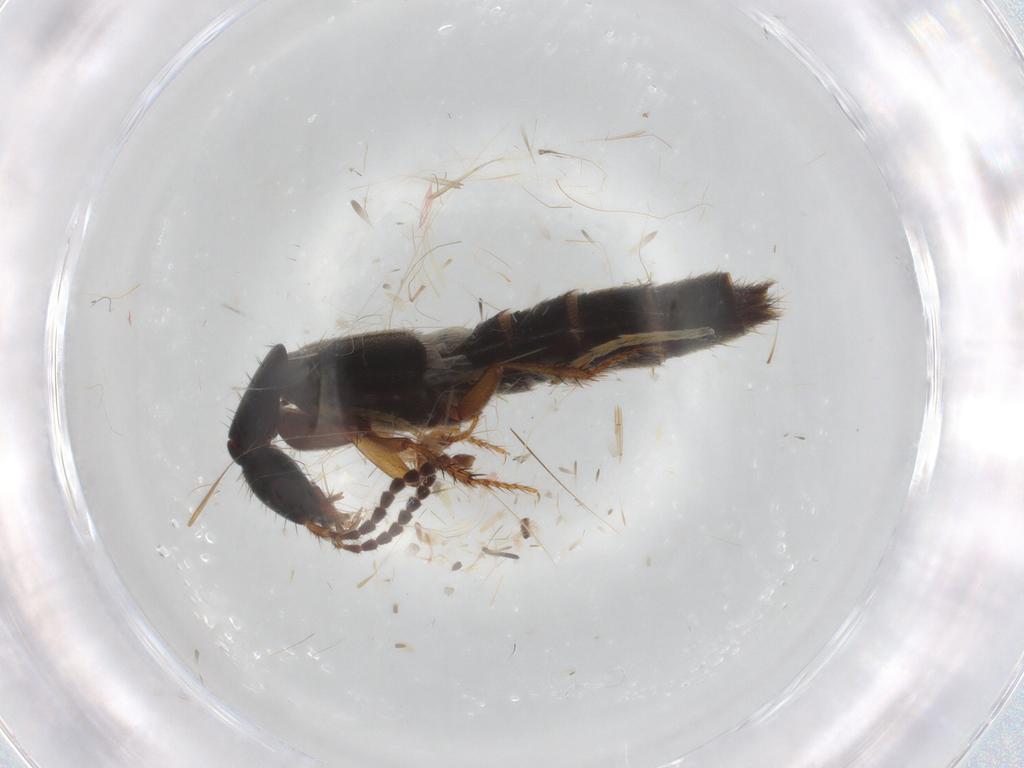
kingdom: Animalia
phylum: Arthropoda
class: Insecta
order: Coleoptera
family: Staphylinidae
